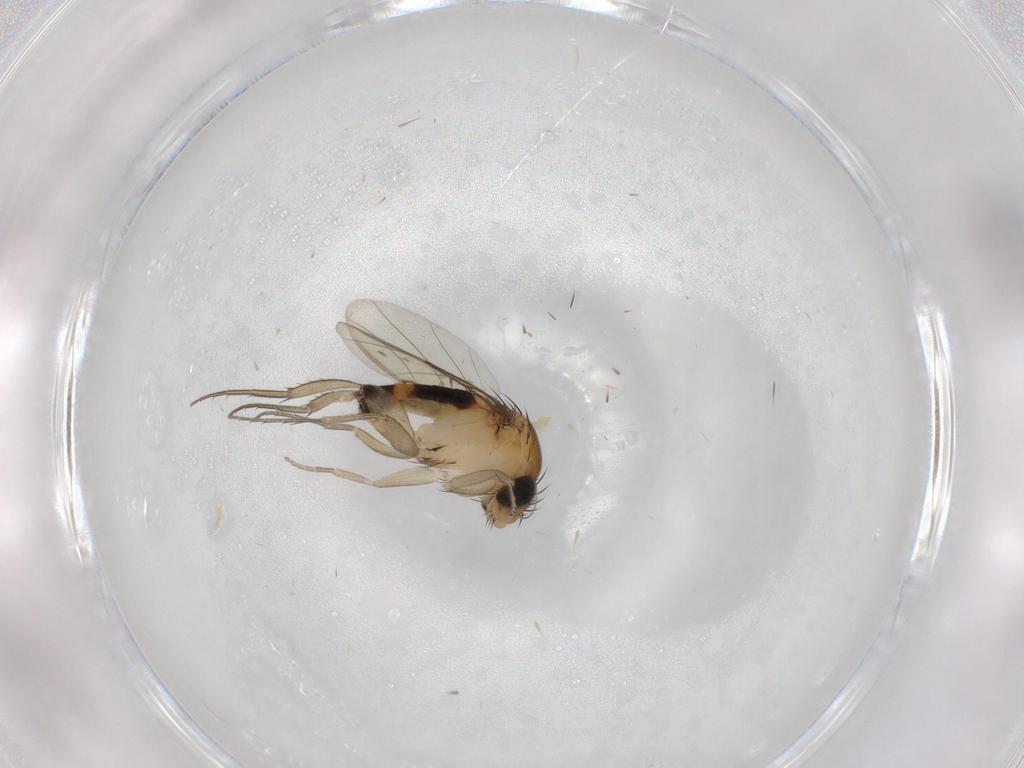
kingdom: Animalia
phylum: Arthropoda
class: Insecta
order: Diptera
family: Phoridae
